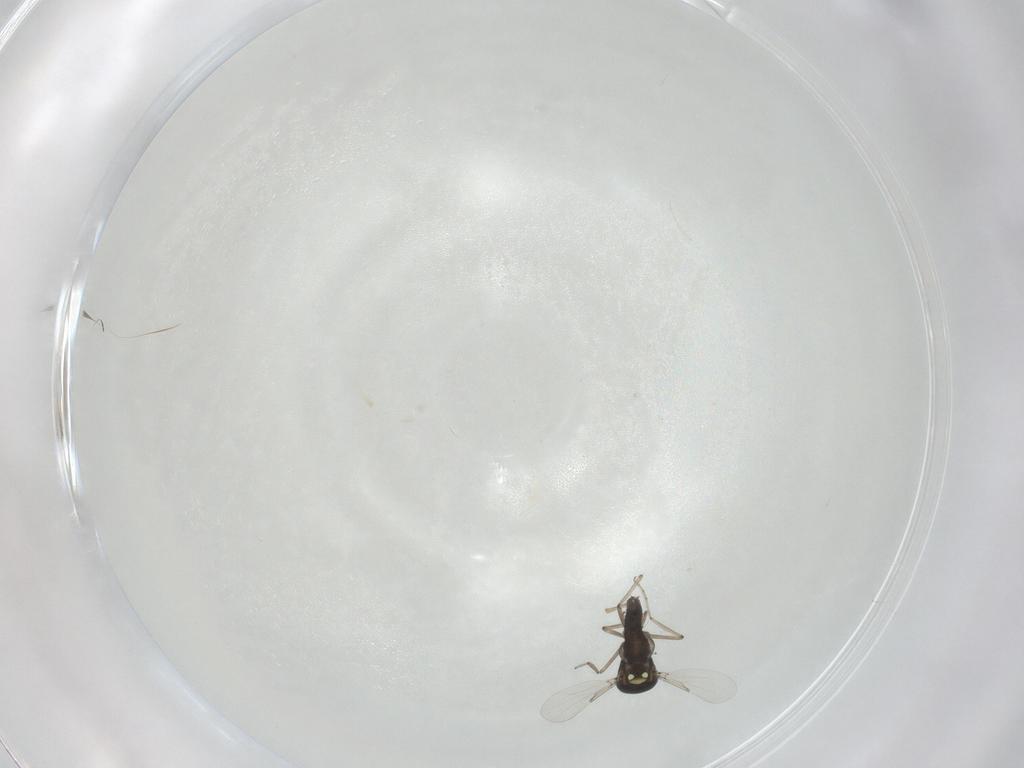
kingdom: Animalia
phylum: Arthropoda
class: Insecta
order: Diptera
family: Ceratopogonidae
